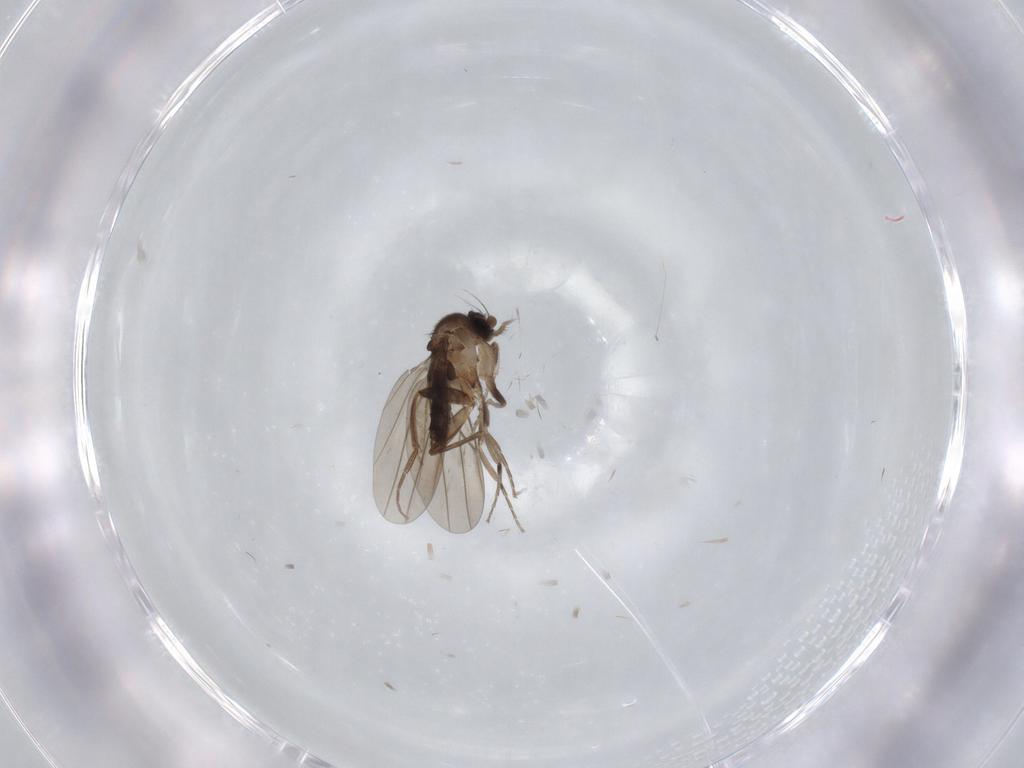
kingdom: Animalia
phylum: Arthropoda
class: Insecta
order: Diptera
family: Phoridae
